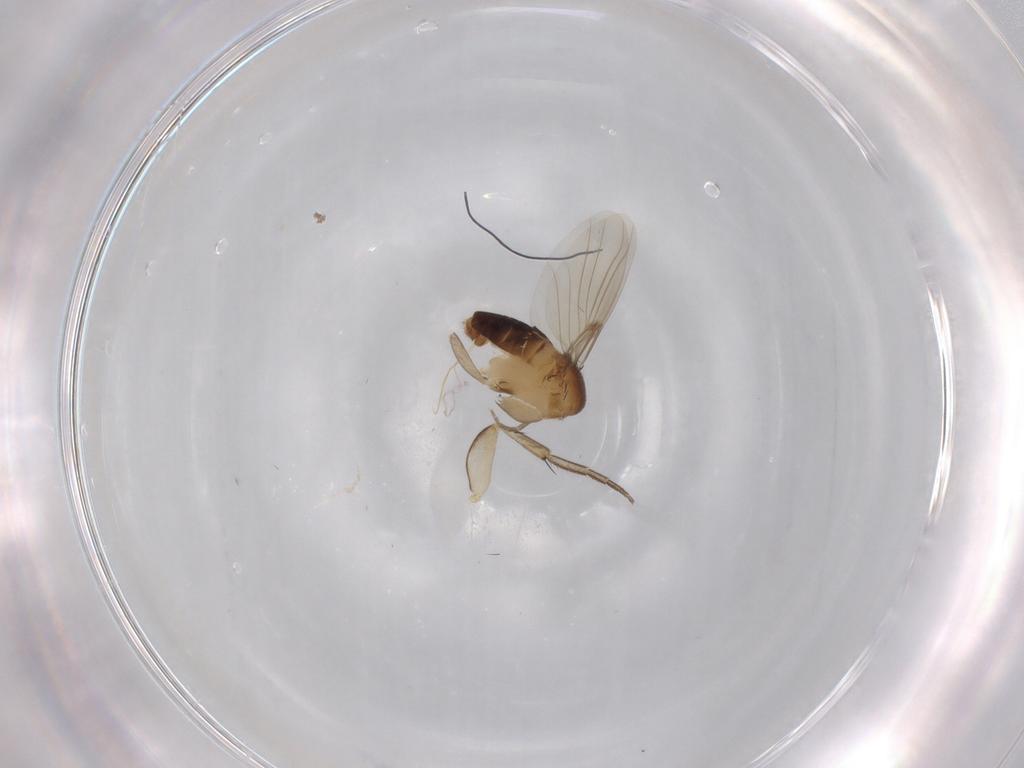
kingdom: Animalia
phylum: Arthropoda
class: Insecta
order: Diptera
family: Phoridae
